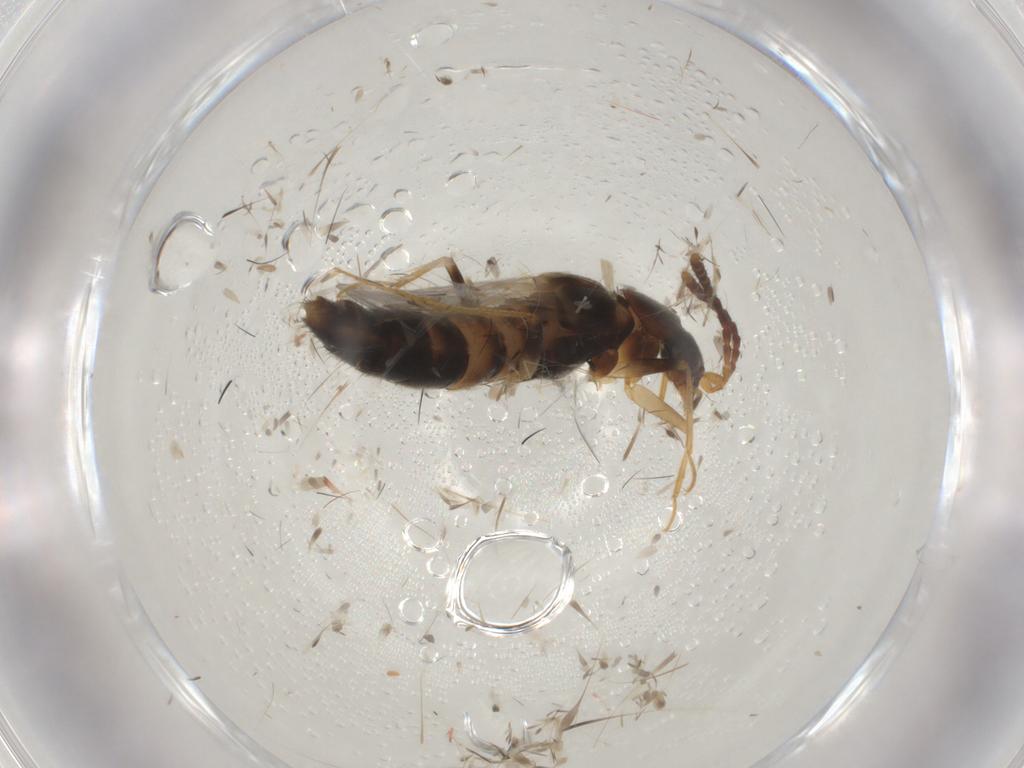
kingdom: Animalia
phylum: Arthropoda
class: Insecta
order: Coleoptera
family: Staphylinidae
